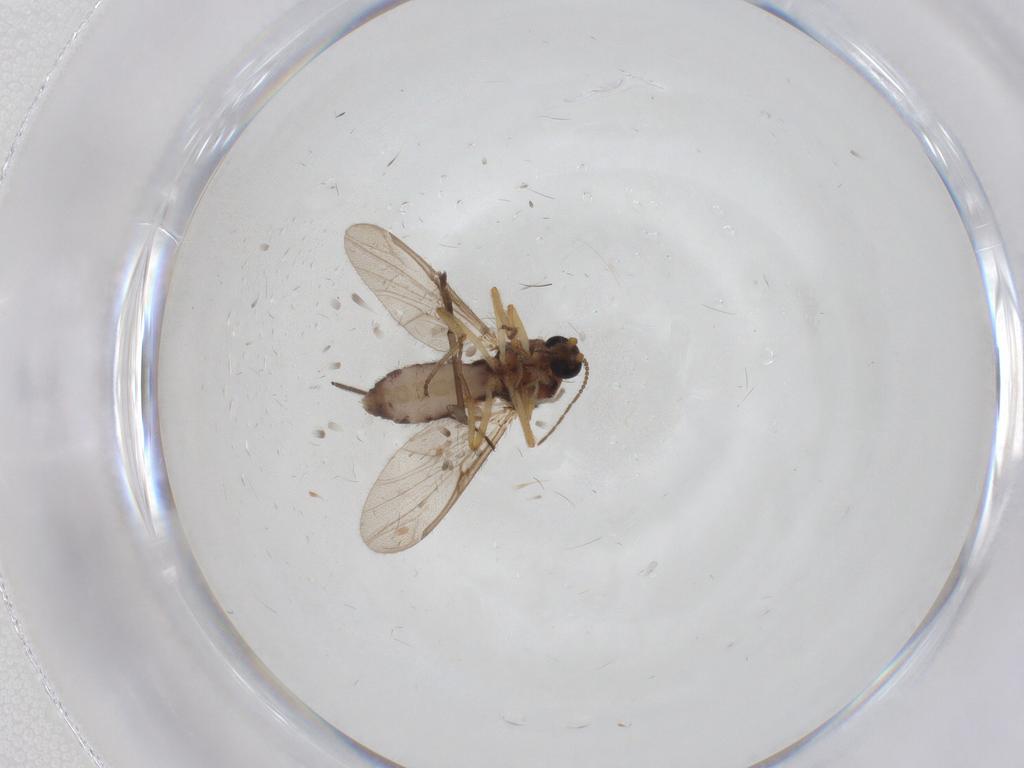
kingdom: Animalia
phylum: Arthropoda
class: Insecta
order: Diptera
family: Ceratopogonidae
